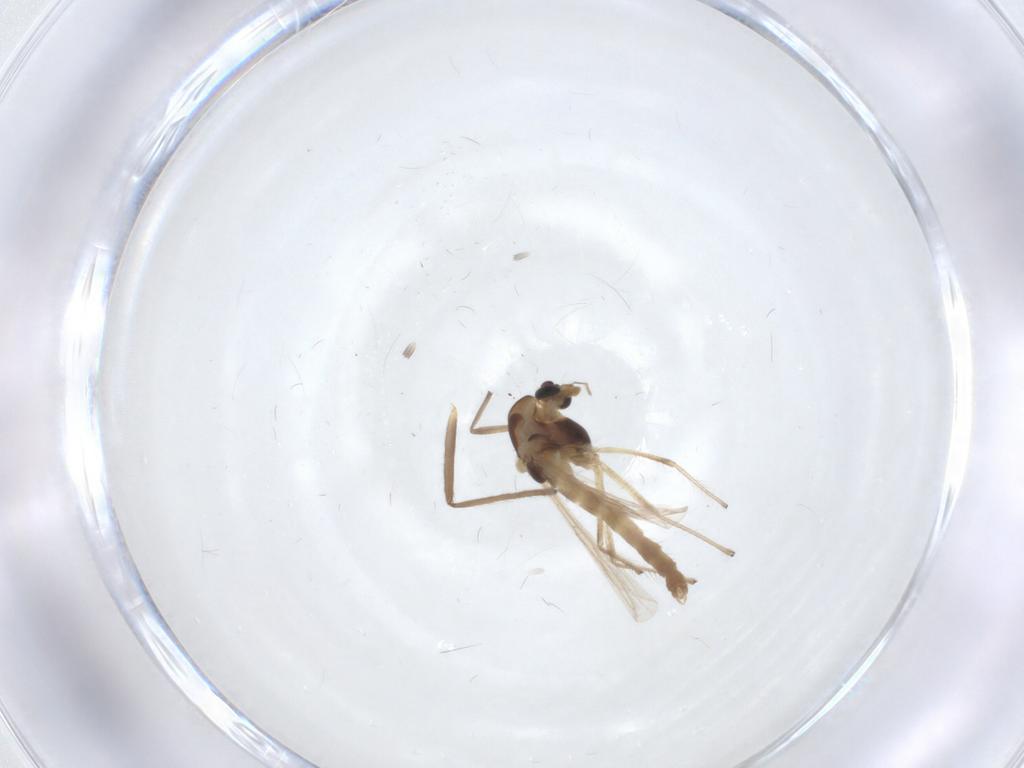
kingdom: Animalia
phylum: Arthropoda
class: Insecta
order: Diptera
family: Chironomidae
